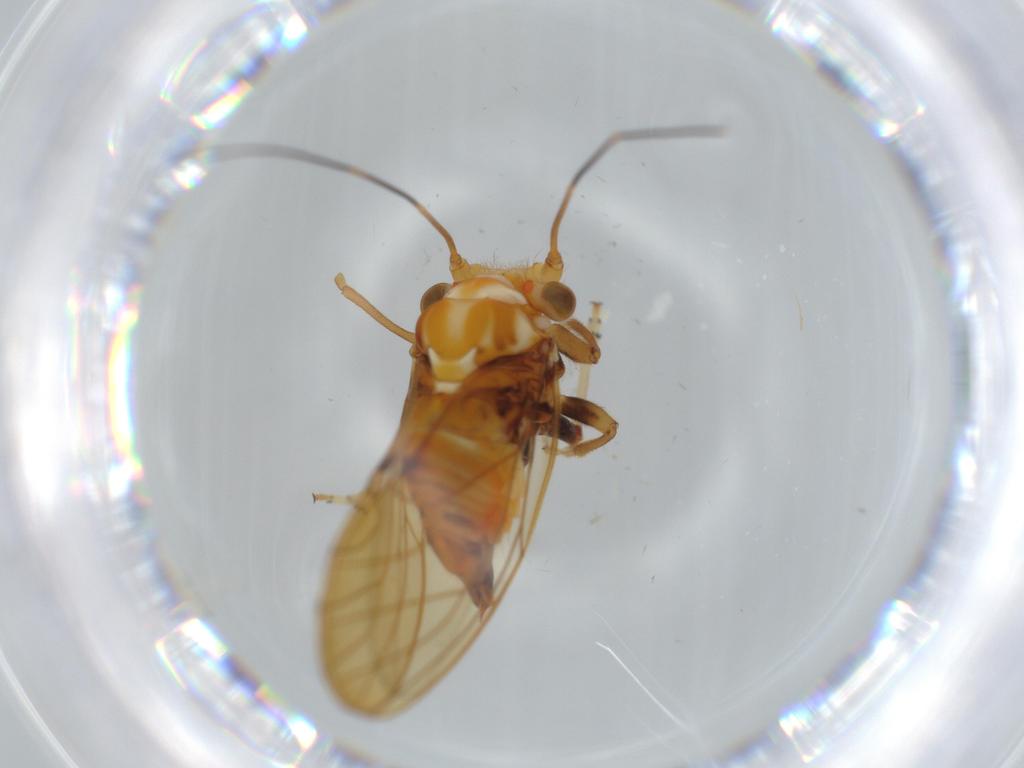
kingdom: Animalia
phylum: Arthropoda
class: Insecta
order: Hemiptera
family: Psyllidae
